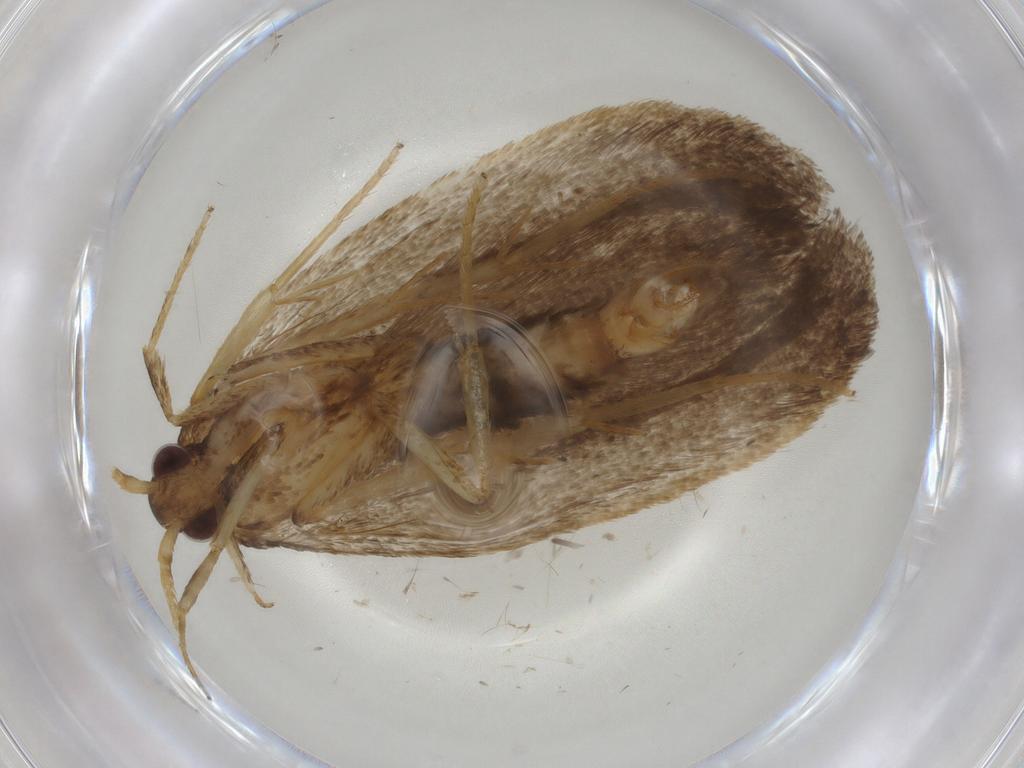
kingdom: Animalia
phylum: Arthropoda
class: Insecta
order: Lepidoptera
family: Lecithoceridae
